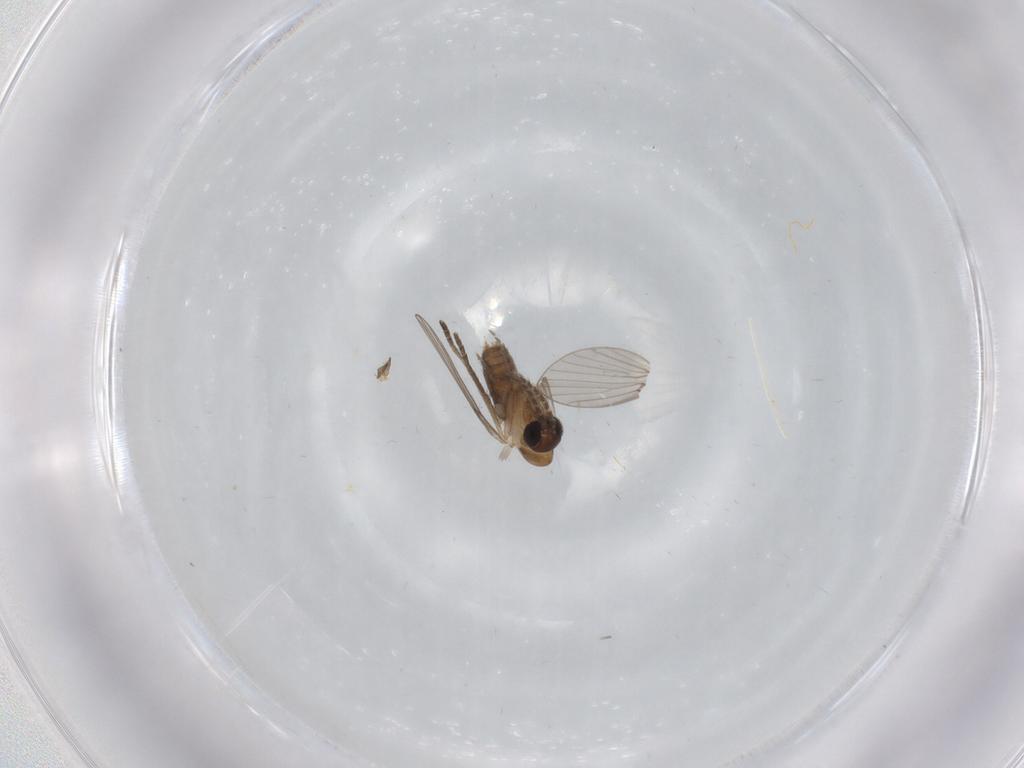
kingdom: Animalia
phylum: Arthropoda
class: Insecta
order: Diptera
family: Psychodidae
